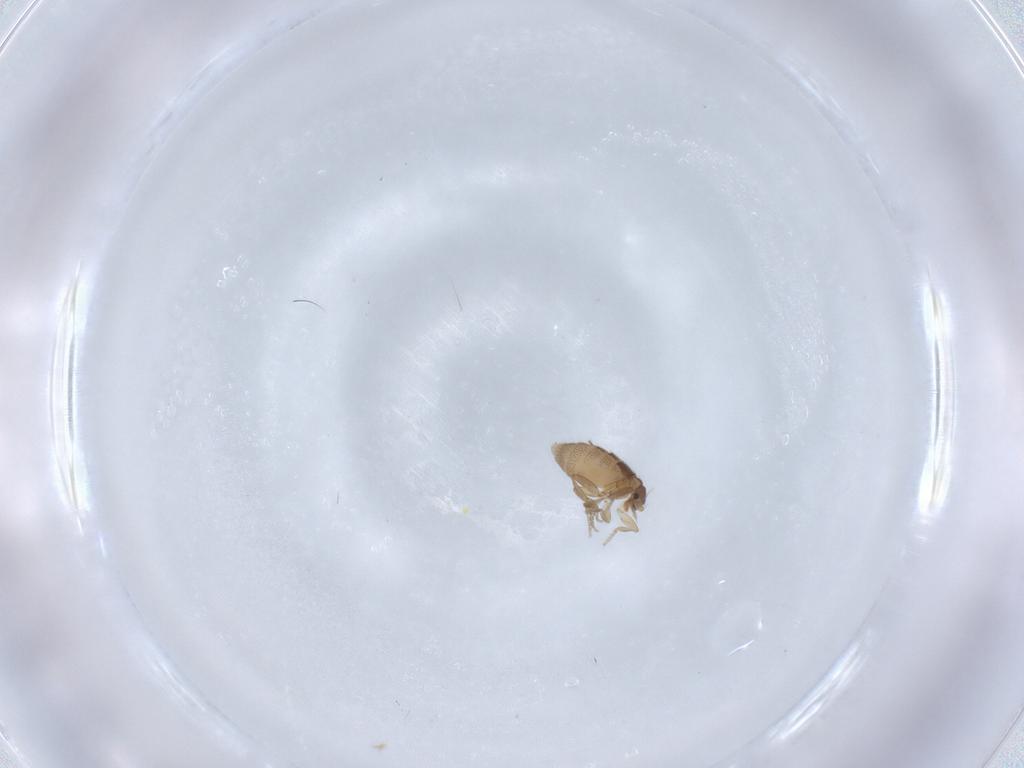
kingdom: Animalia
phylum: Arthropoda
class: Insecta
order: Diptera
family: Phoridae
